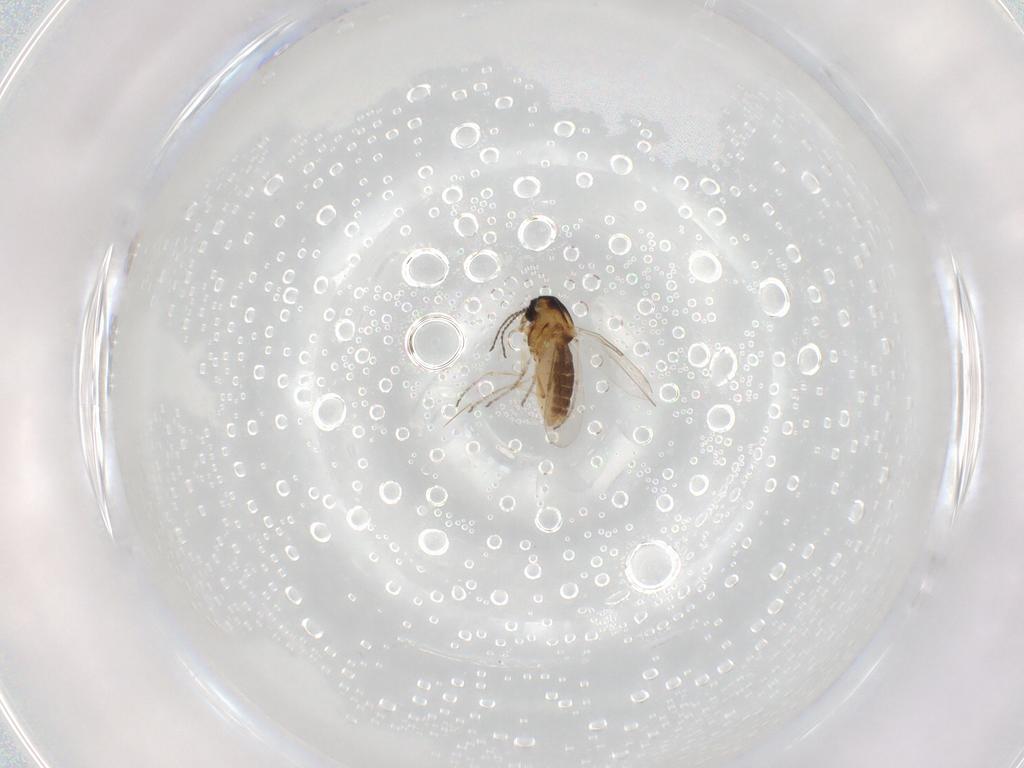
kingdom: Animalia
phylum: Arthropoda
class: Insecta
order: Diptera
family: Ceratopogonidae
